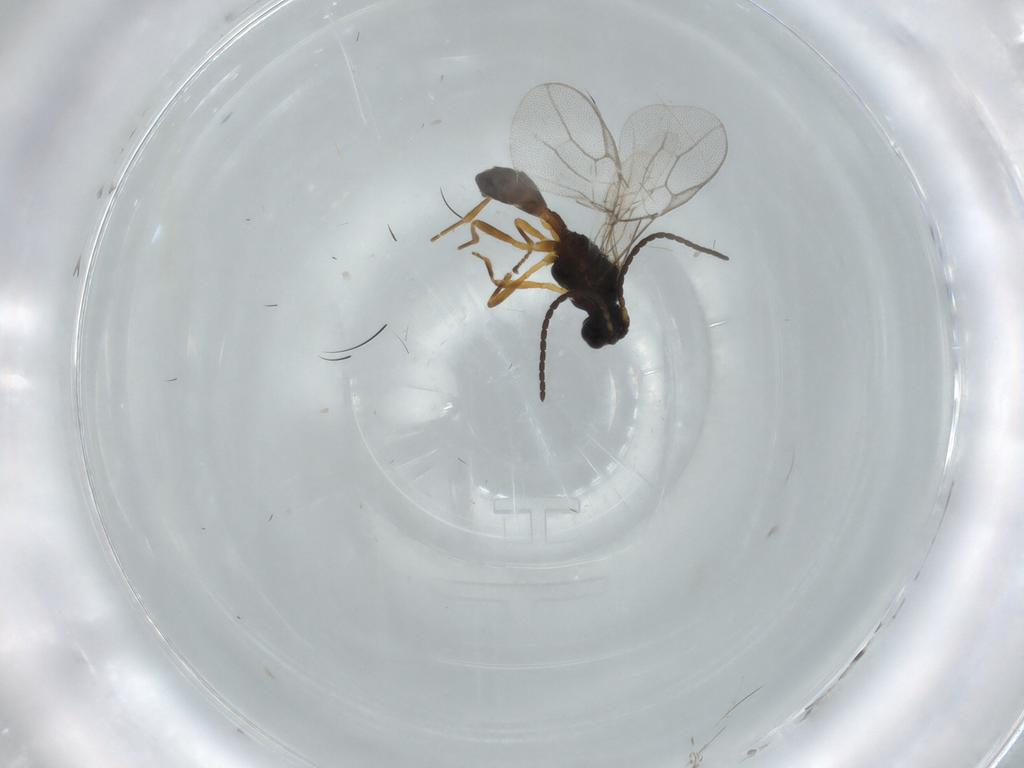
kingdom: Animalia
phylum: Arthropoda
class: Insecta
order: Hymenoptera
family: Braconidae
